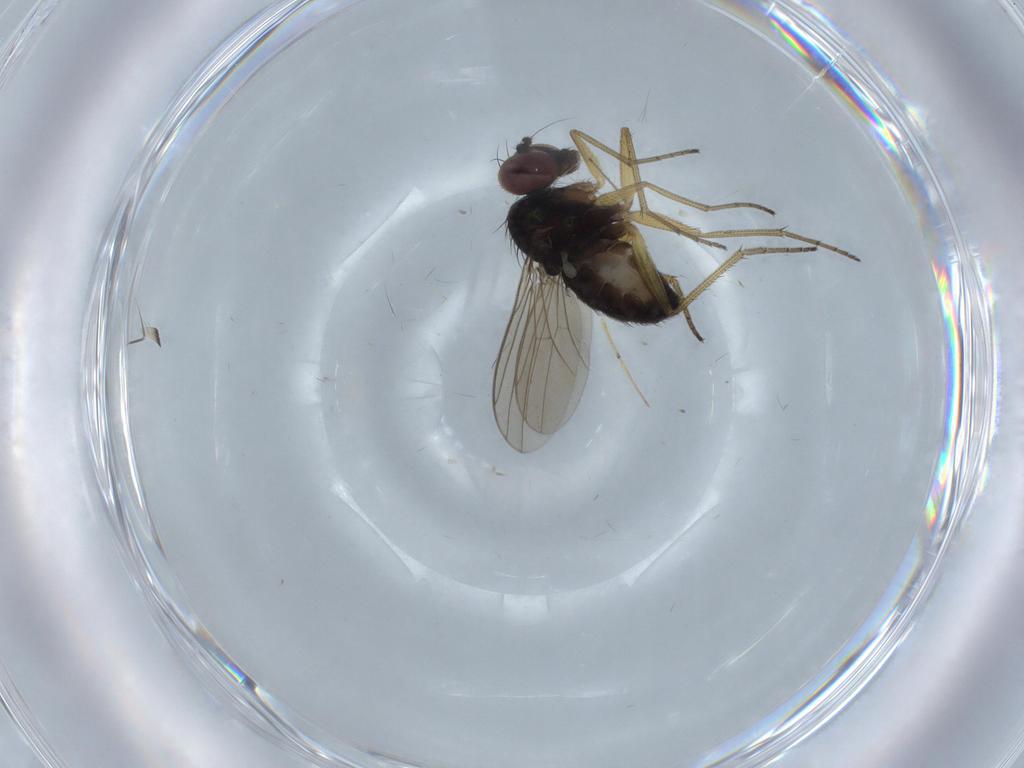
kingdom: Animalia
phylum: Arthropoda
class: Insecta
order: Diptera
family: Dolichopodidae
